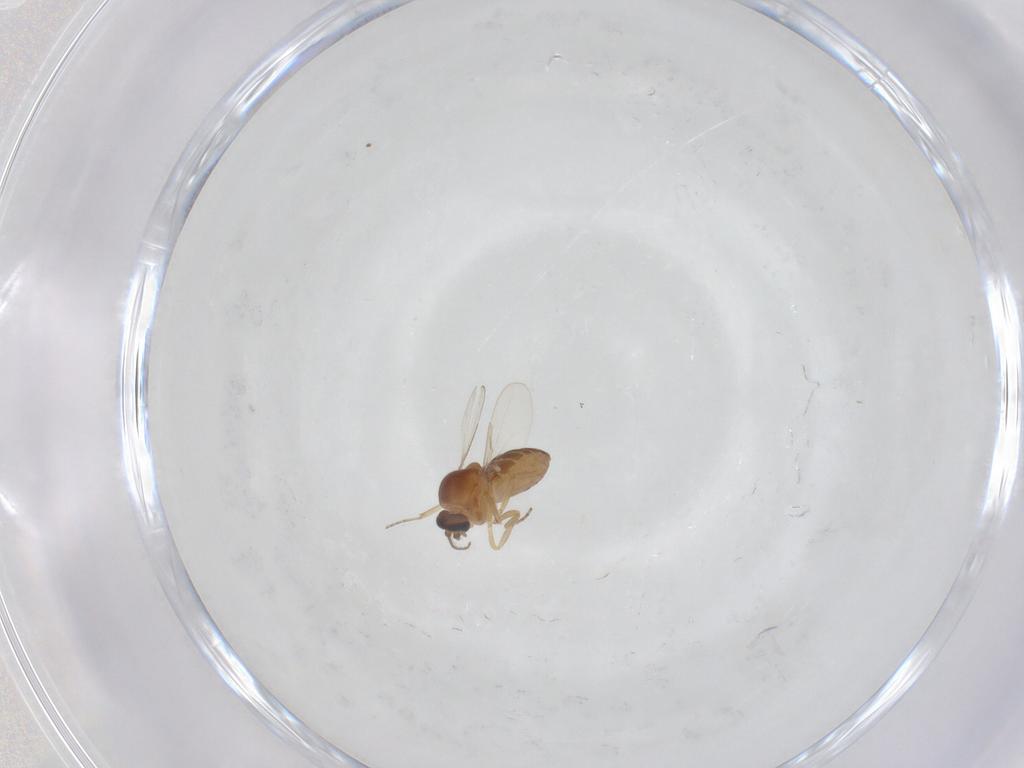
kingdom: Animalia
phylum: Arthropoda
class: Insecta
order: Diptera
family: Ceratopogonidae
